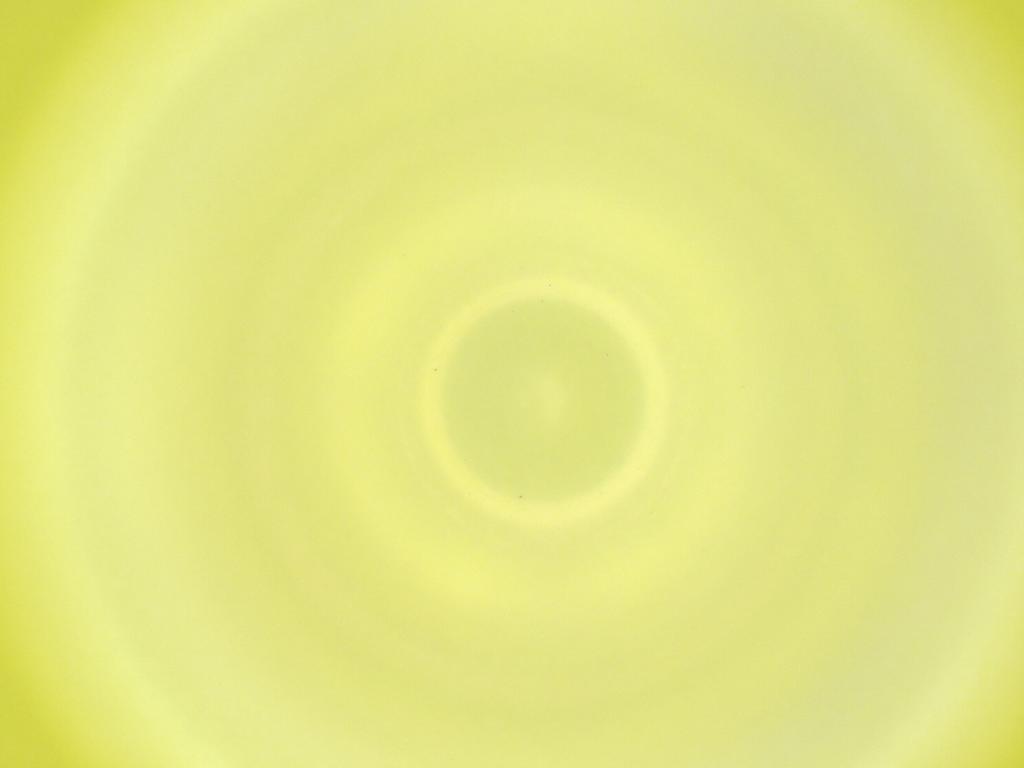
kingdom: Animalia
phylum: Arthropoda
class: Insecta
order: Diptera
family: Cecidomyiidae
